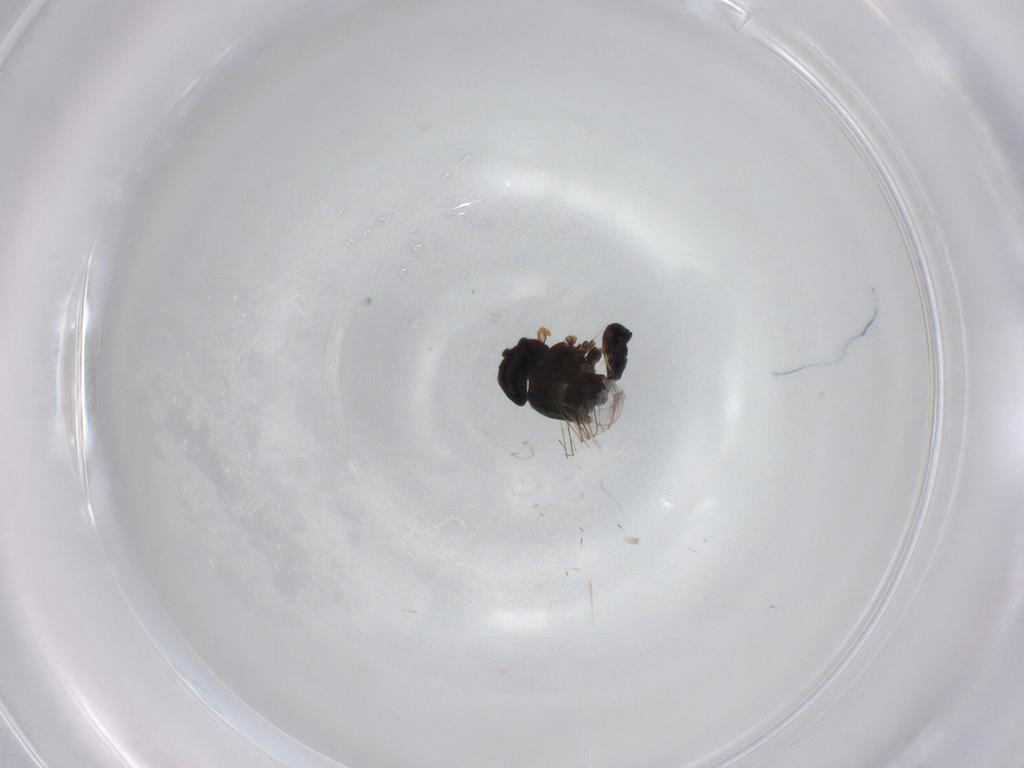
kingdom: Animalia
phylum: Arthropoda
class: Insecta
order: Diptera
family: Pipunculidae
